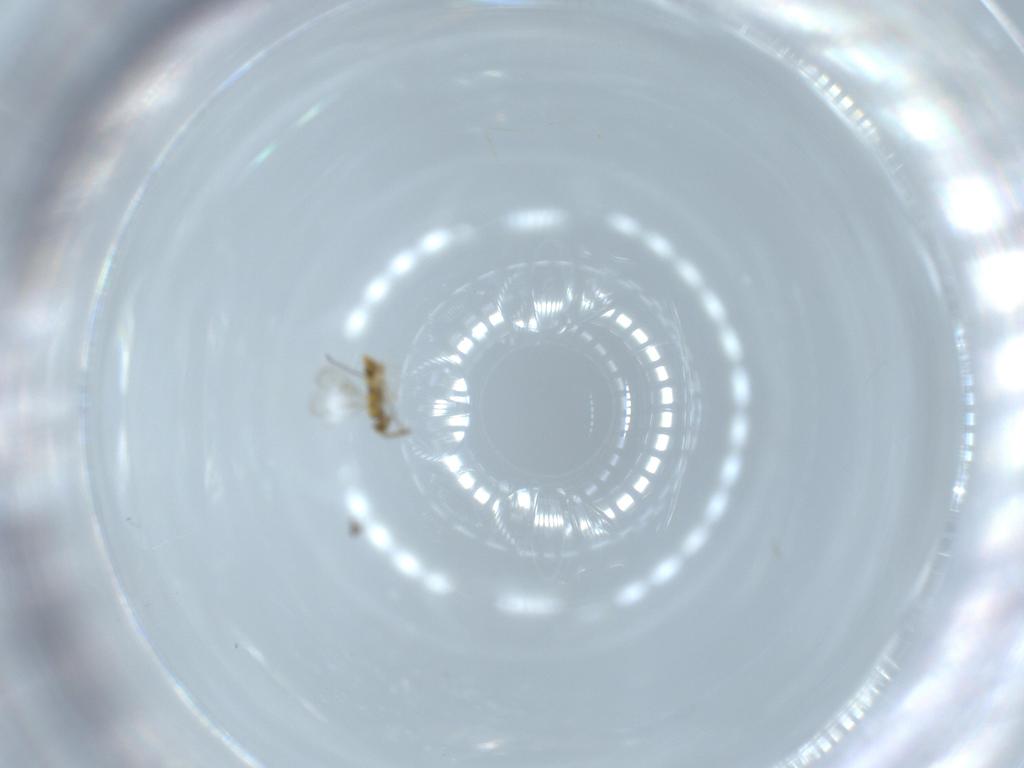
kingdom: Animalia
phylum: Arthropoda
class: Insecta
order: Hymenoptera
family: Aphelinidae
